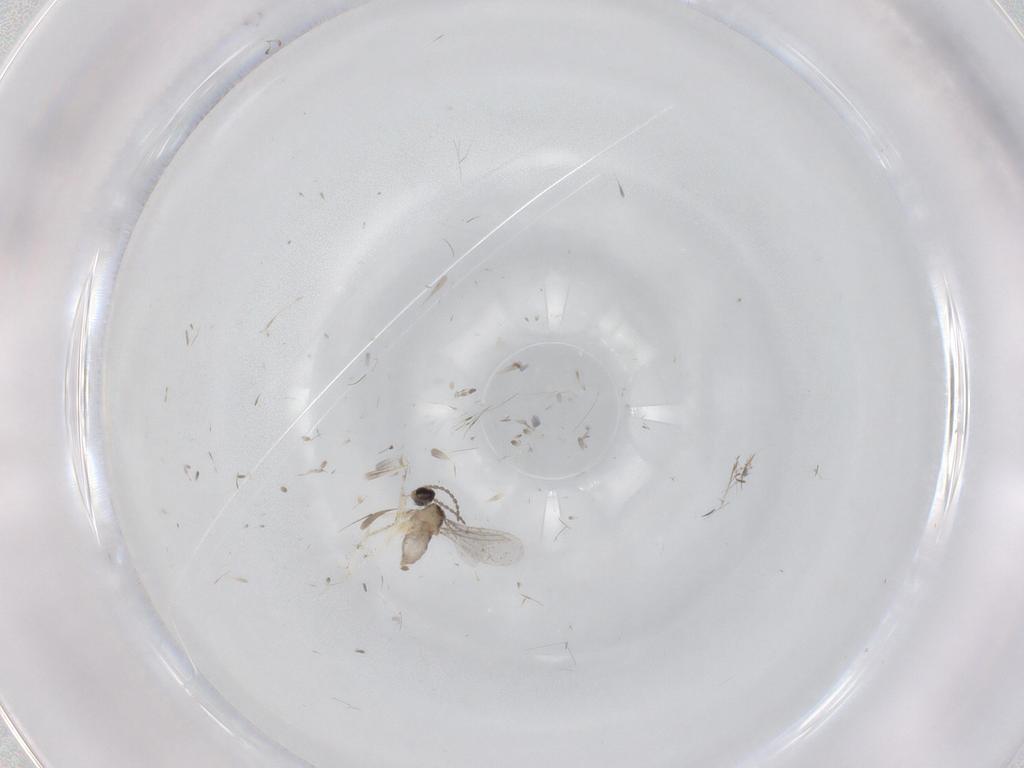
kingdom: Animalia
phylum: Arthropoda
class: Insecta
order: Diptera
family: Cecidomyiidae
